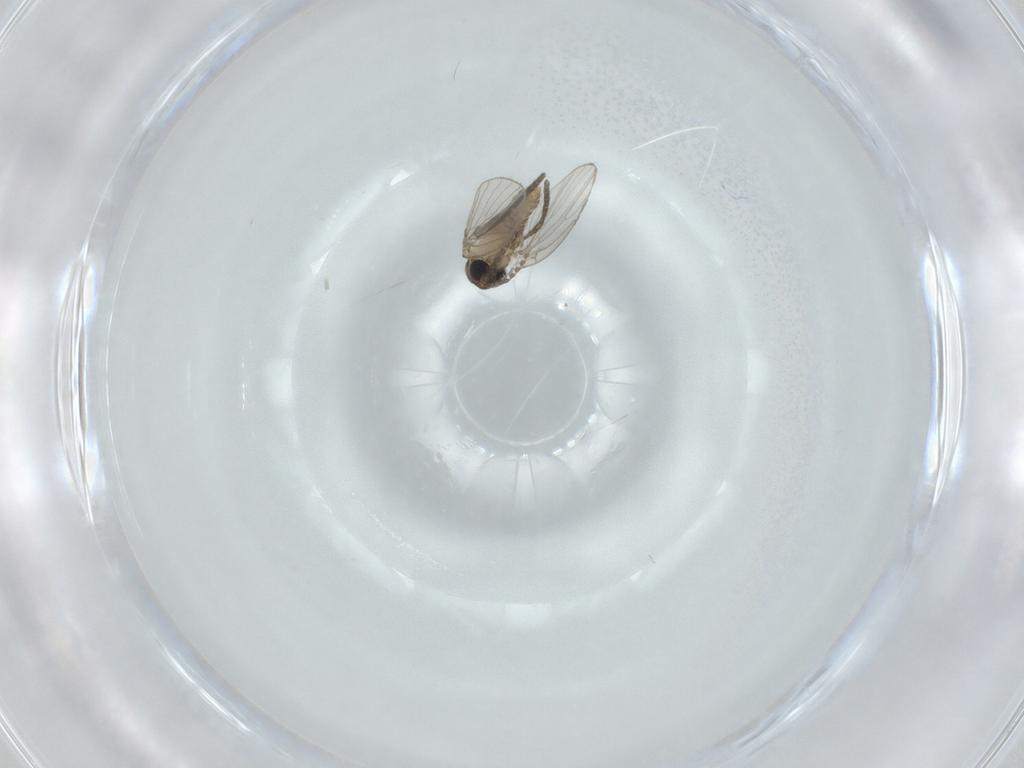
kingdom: Animalia
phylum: Arthropoda
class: Insecta
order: Diptera
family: Psychodidae
